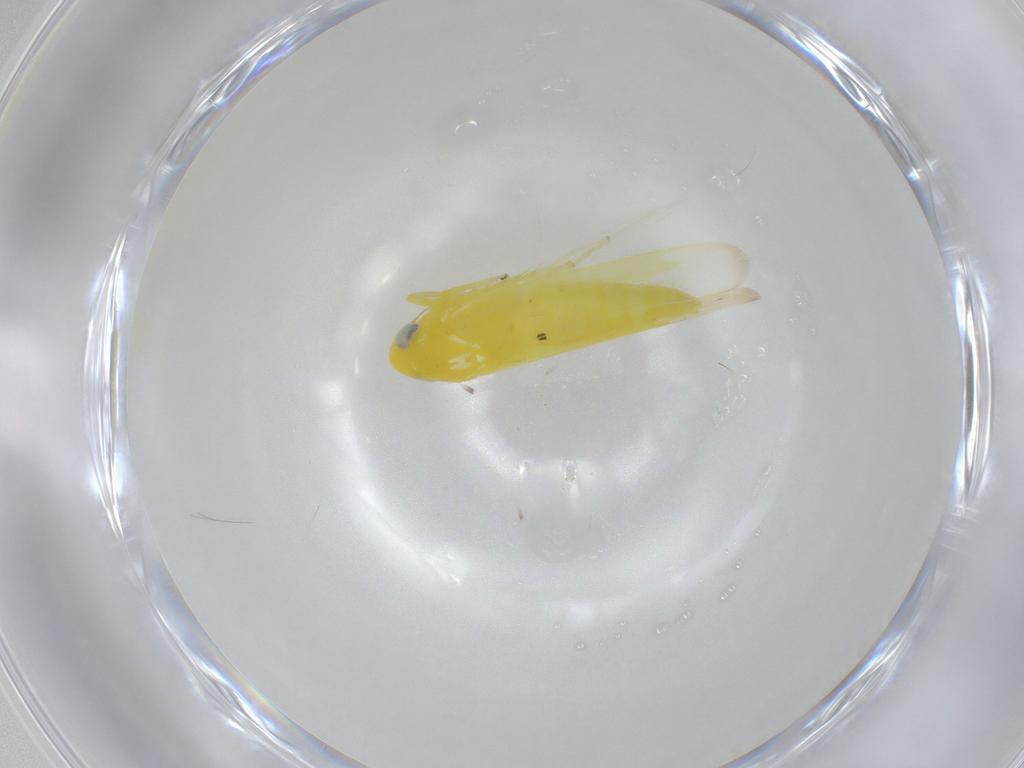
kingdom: Animalia
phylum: Arthropoda
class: Insecta
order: Hemiptera
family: Cicadellidae
